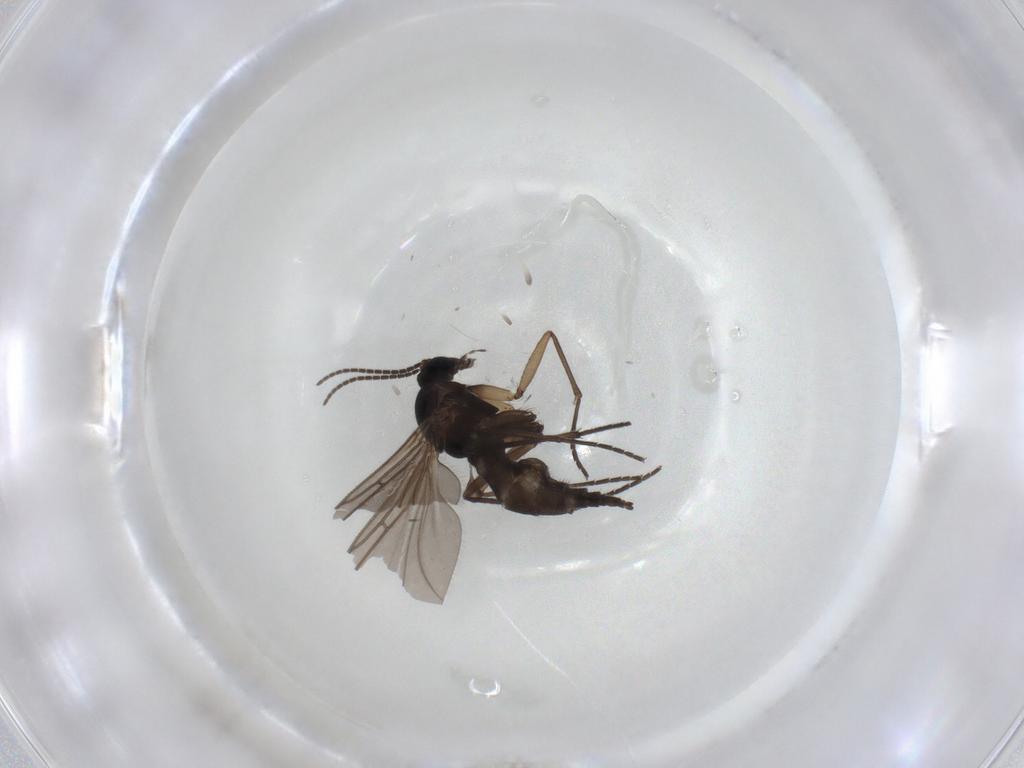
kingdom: Animalia
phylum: Arthropoda
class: Insecta
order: Diptera
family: Sciaridae
